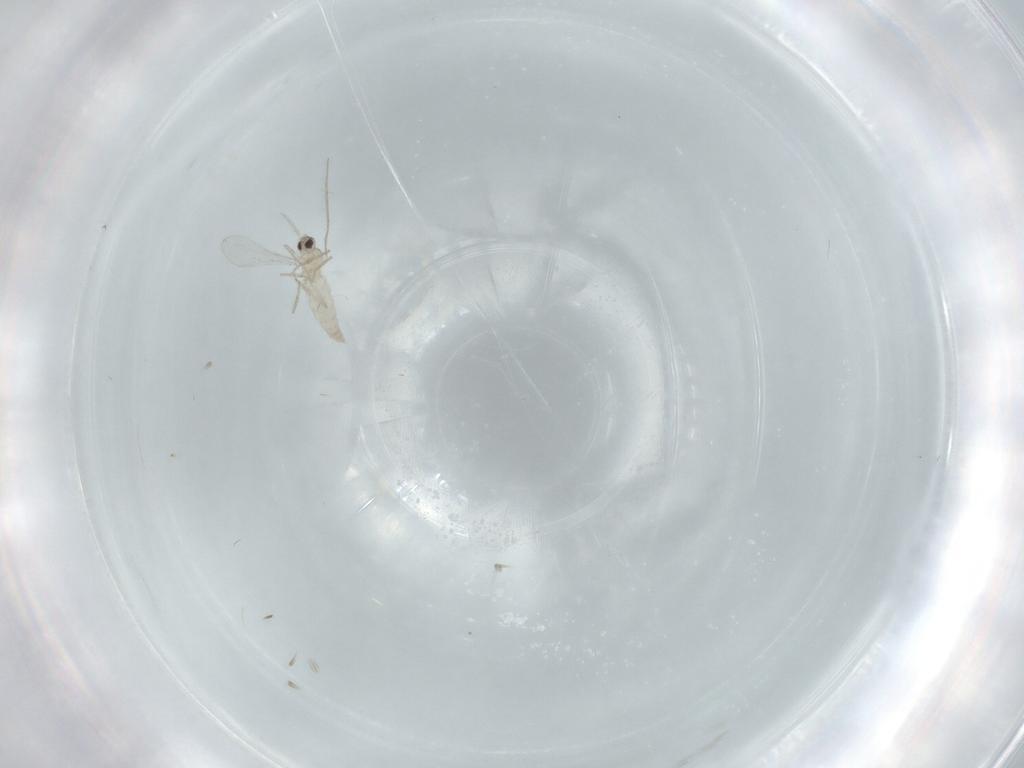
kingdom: Animalia
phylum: Arthropoda
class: Insecta
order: Diptera
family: Cecidomyiidae
